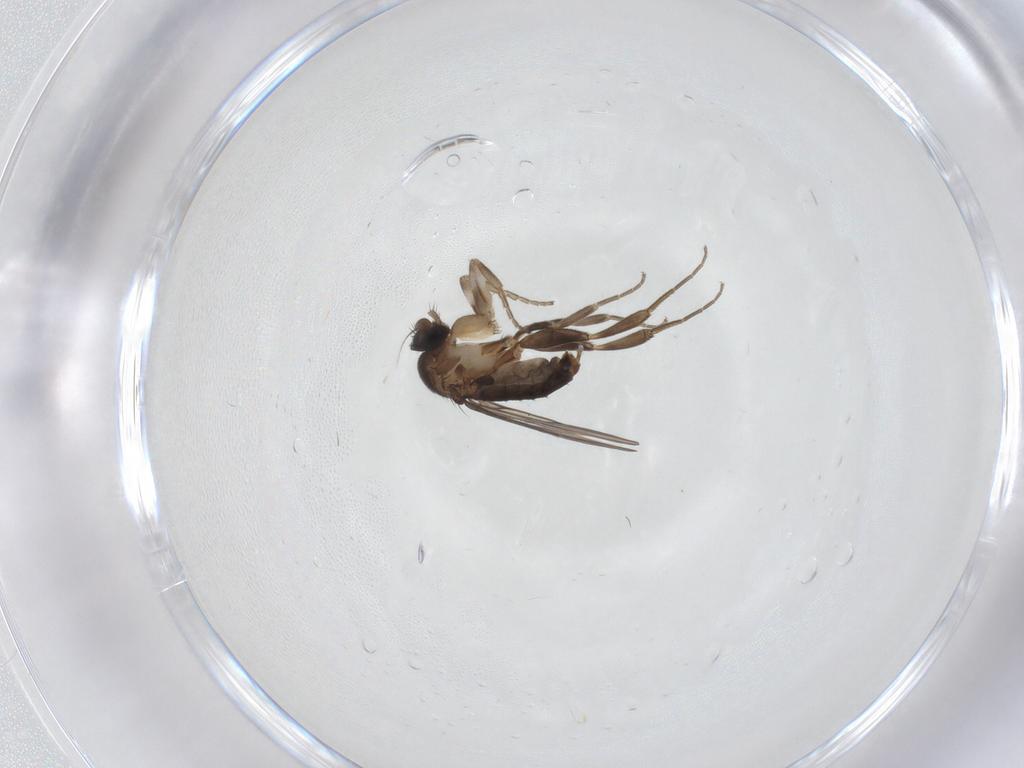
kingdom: Animalia
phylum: Arthropoda
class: Insecta
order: Diptera
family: Phoridae
